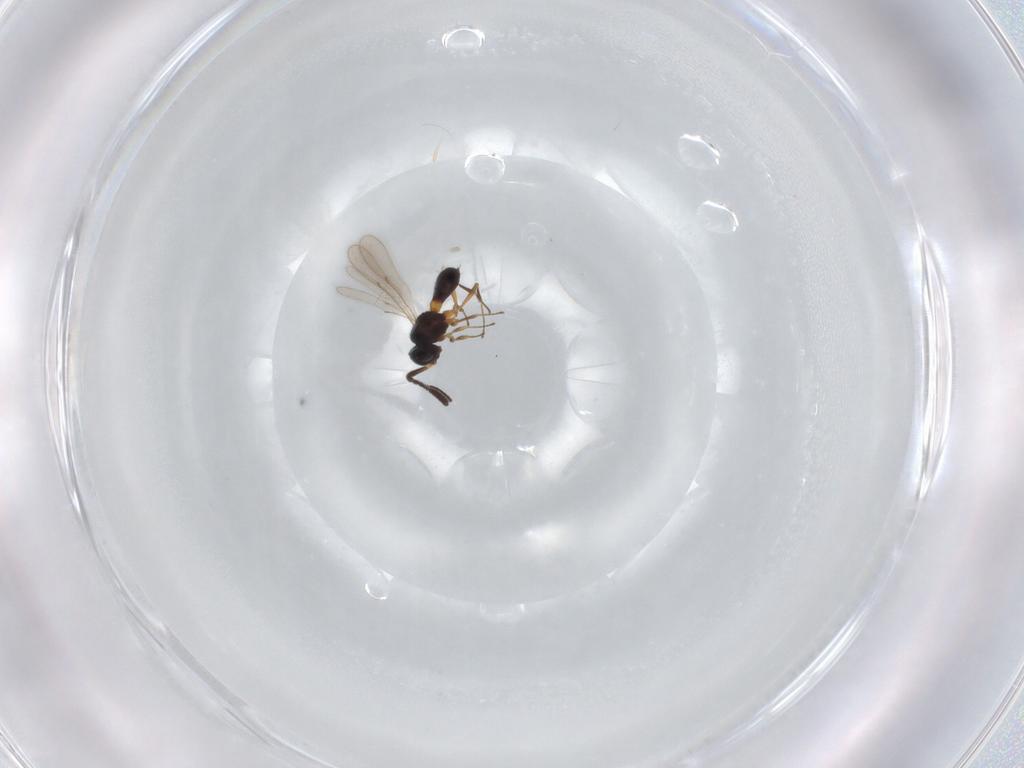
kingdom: Animalia
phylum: Arthropoda
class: Insecta
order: Hymenoptera
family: Scelionidae
